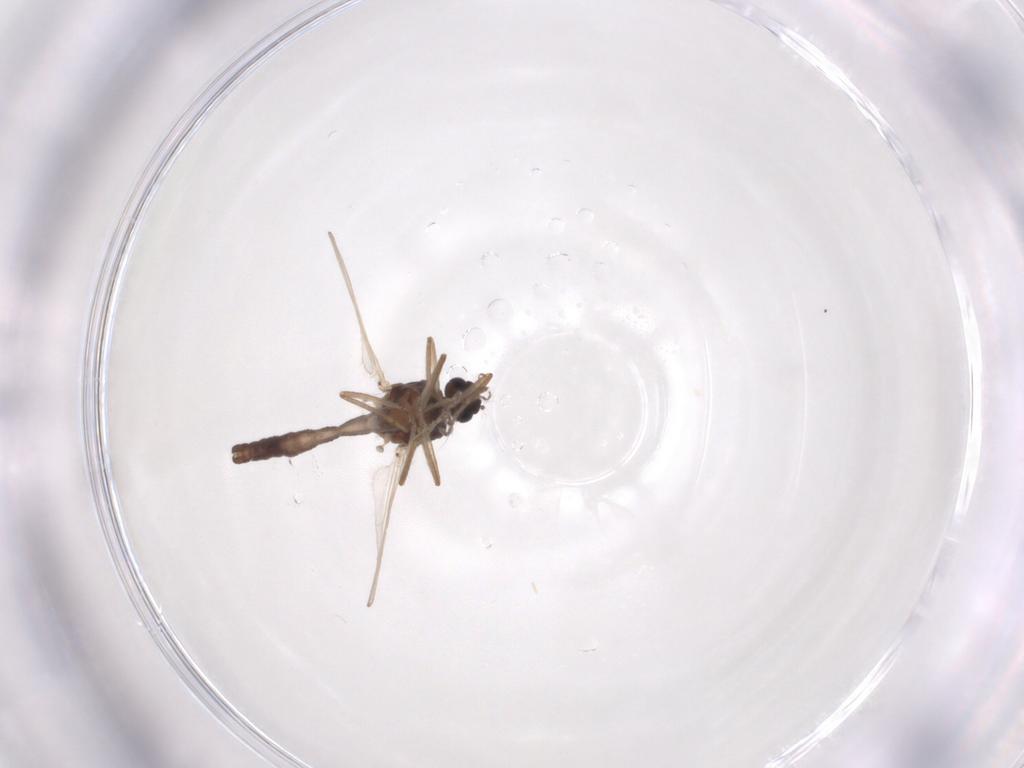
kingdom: Animalia
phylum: Arthropoda
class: Insecta
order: Diptera
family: Ceratopogonidae
